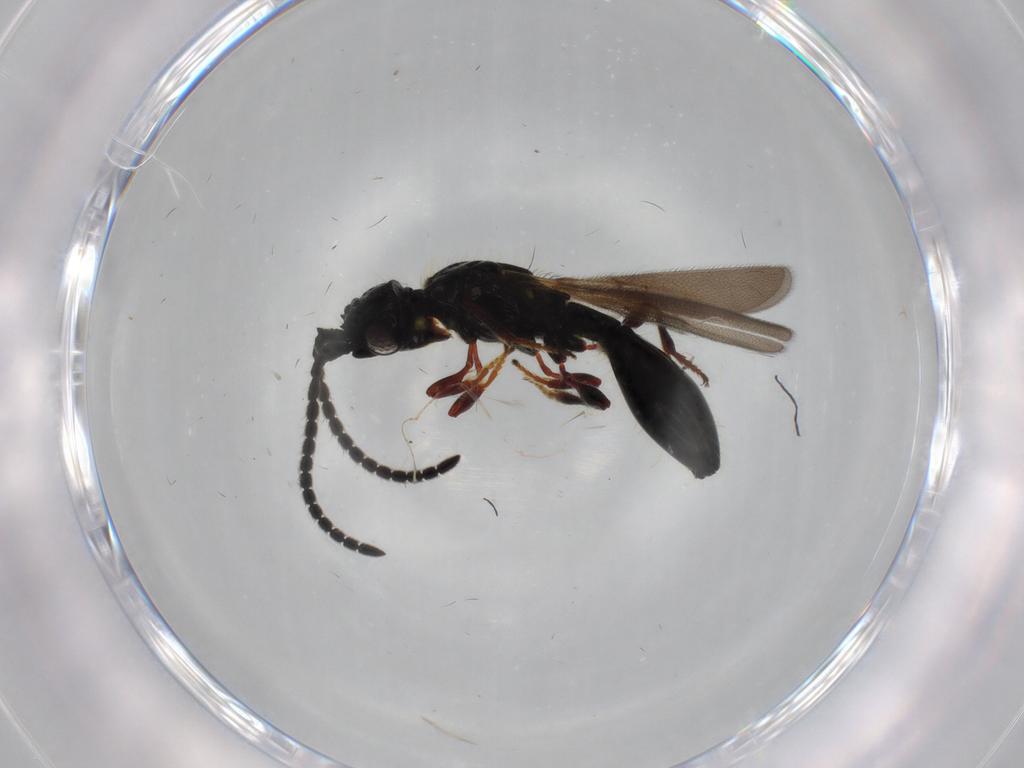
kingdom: Animalia
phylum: Arthropoda
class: Insecta
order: Hymenoptera
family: Diapriidae
